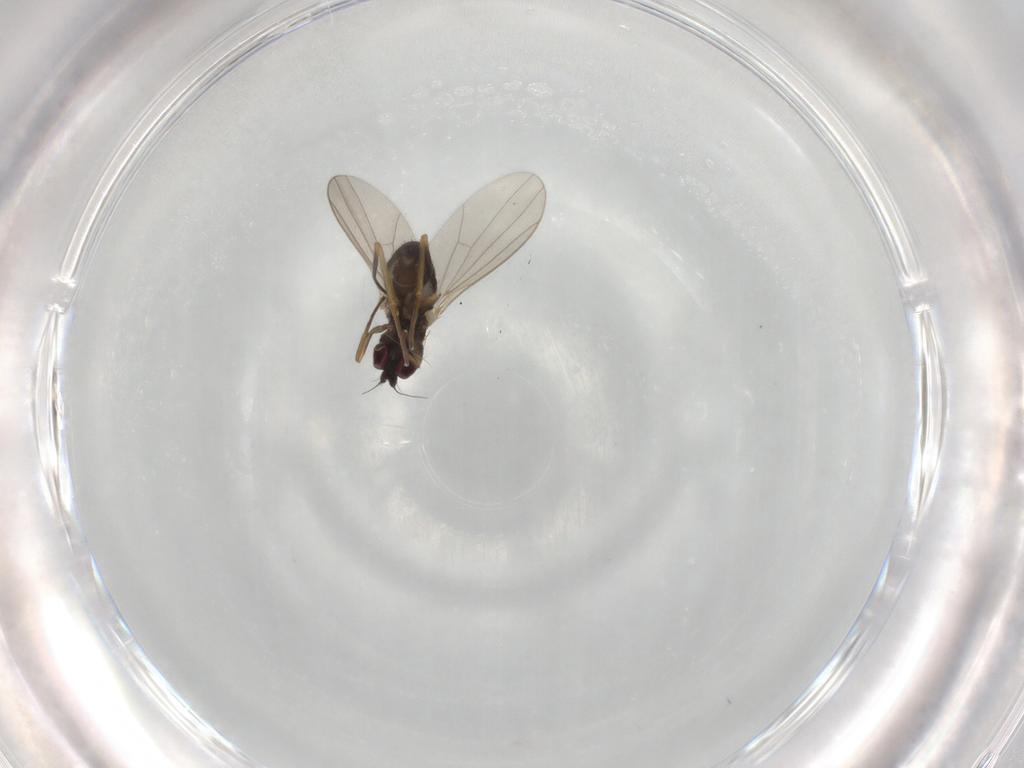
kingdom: Animalia
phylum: Arthropoda
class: Insecta
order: Diptera
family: Dolichopodidae
